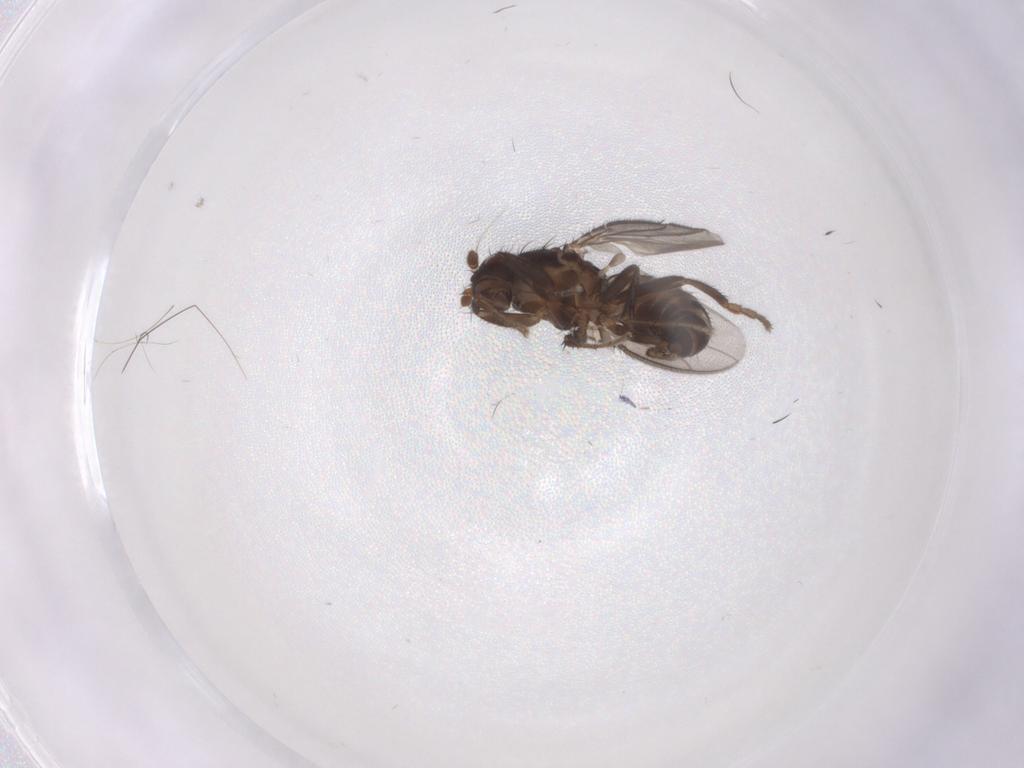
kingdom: Animalia
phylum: Arthropoda
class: Insecta
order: Diptera
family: Sphaeroceridae
